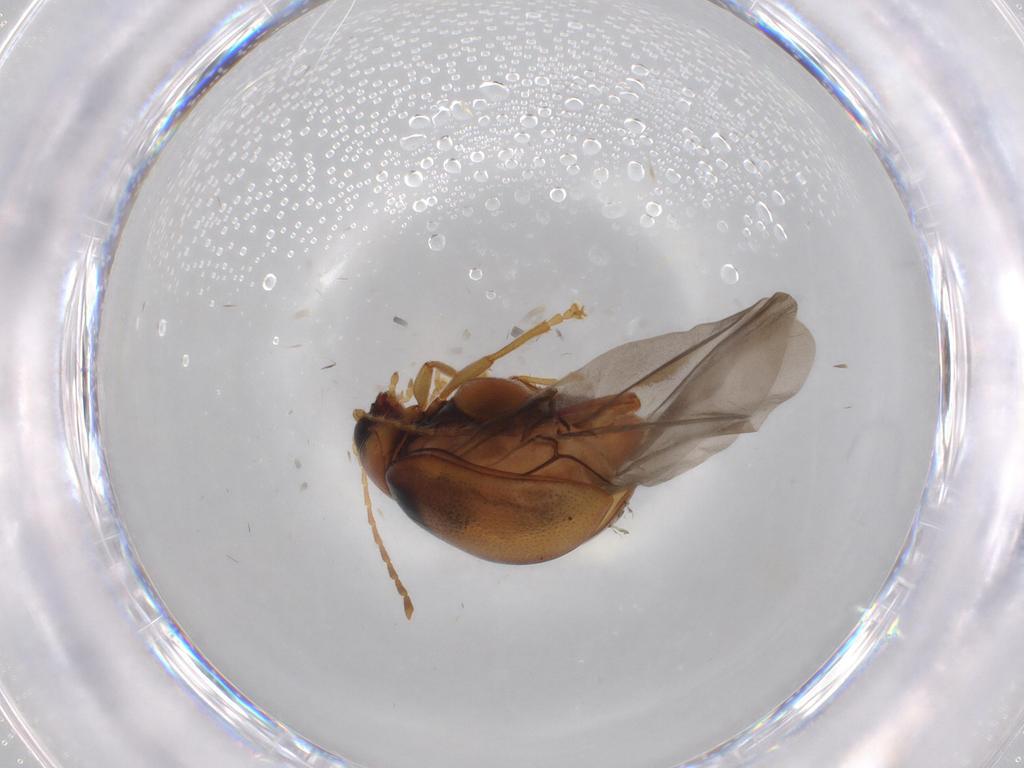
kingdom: Animalia
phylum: Arthropoda
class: Insecta
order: Coleoptera
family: Chrysomelidae
